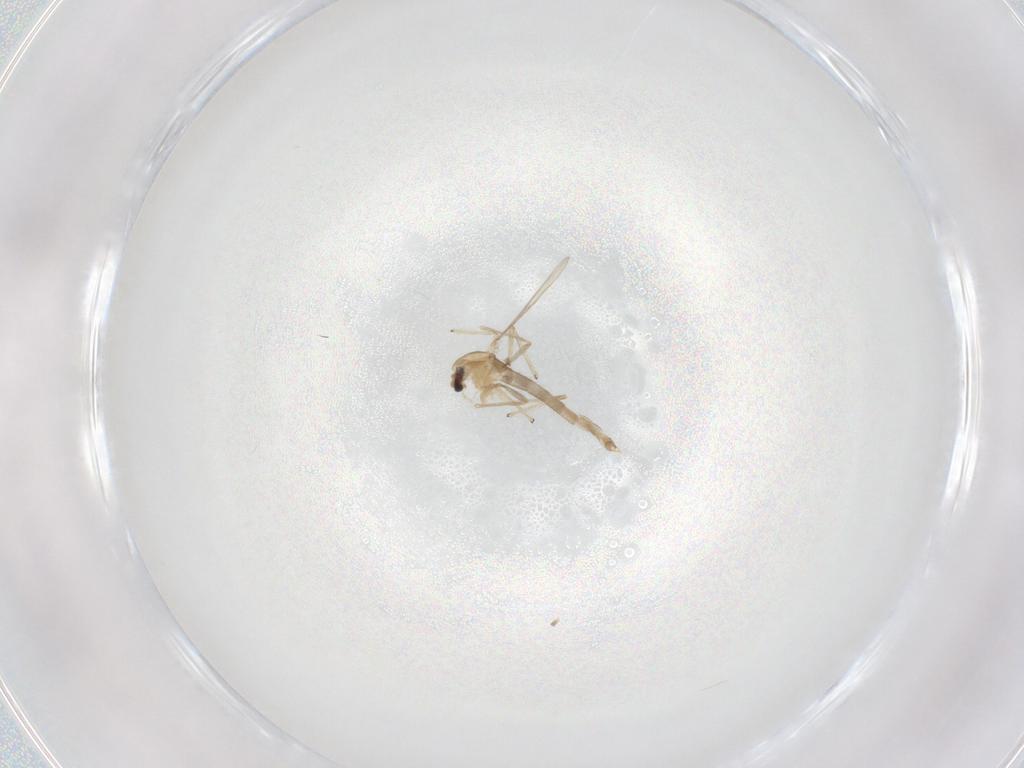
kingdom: Animalia
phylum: Arthropoda
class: Insecta
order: Diptera
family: Chironomidae
